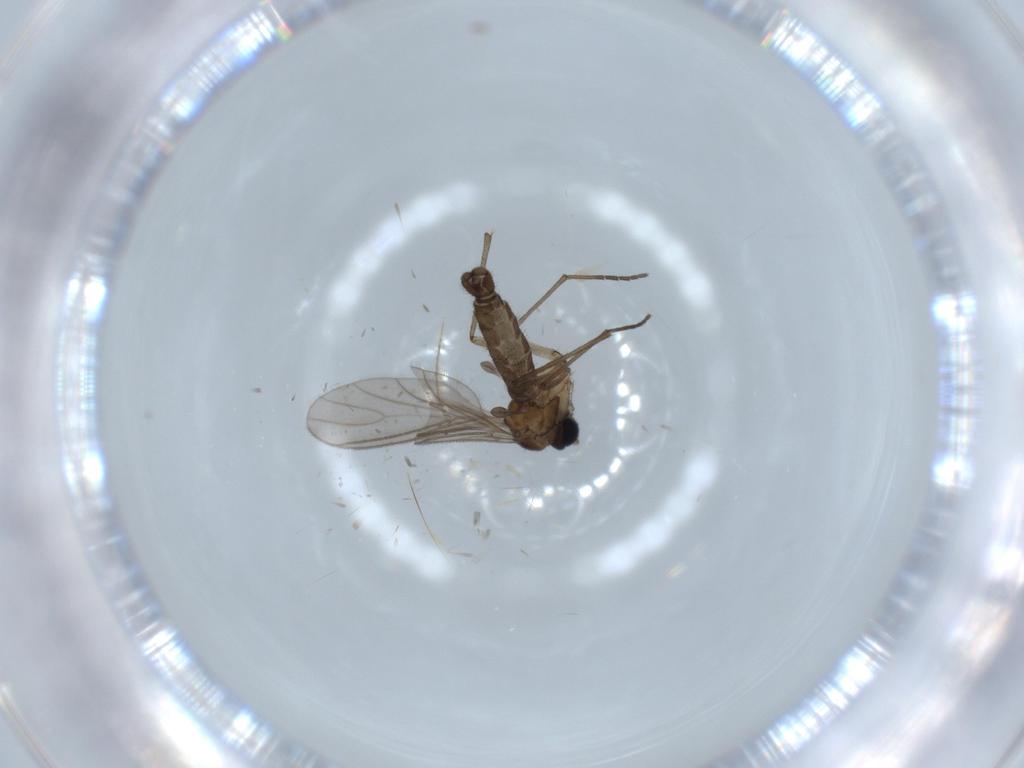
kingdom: Animalia
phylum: Arthropoda
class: Insecta
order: Diptera
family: Sciaridae
